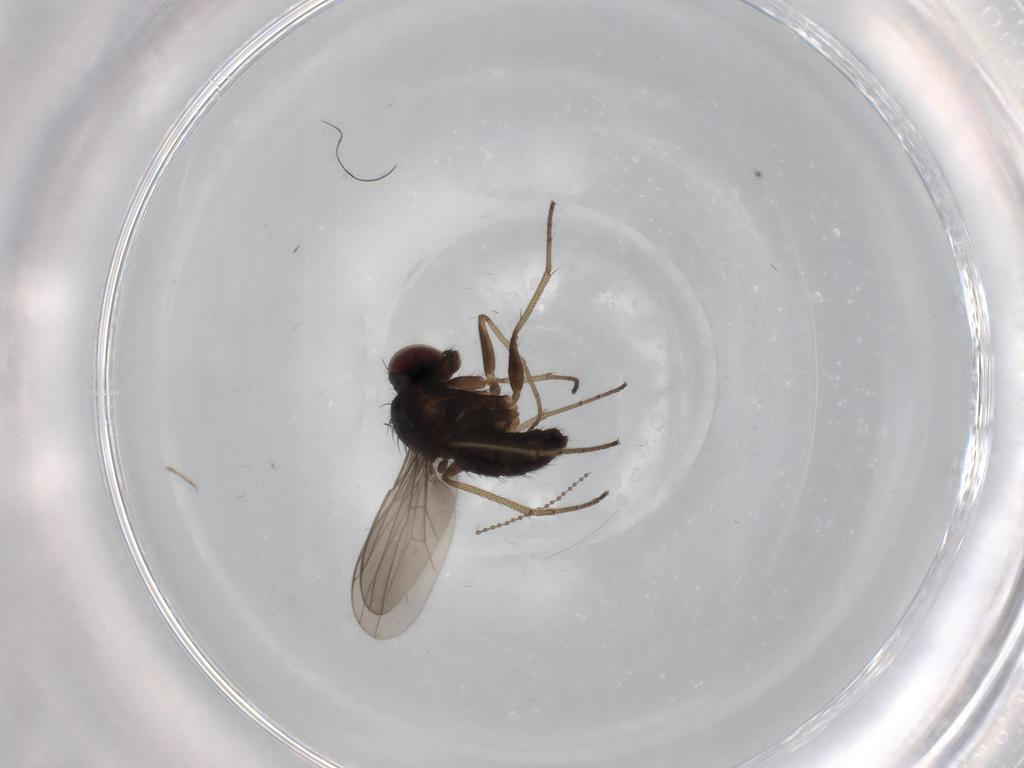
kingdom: Animalia
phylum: Arthropoda
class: Insecta
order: Diptera
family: Dolichopodidae
